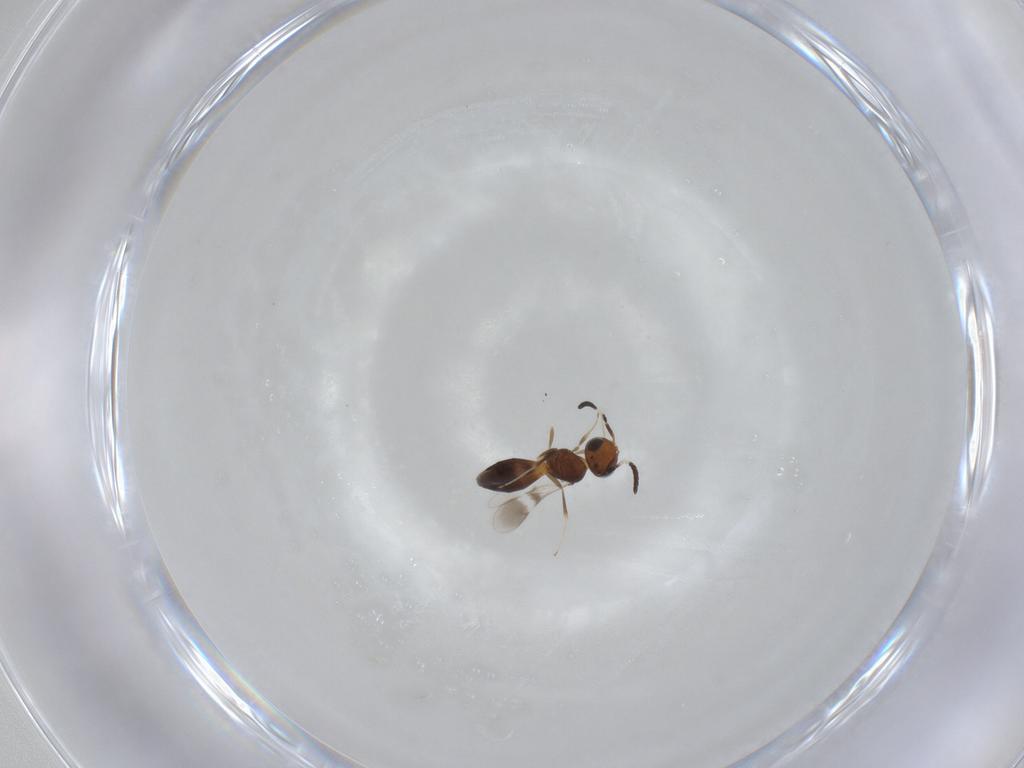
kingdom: Animalia
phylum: Arthropoda
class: Insecta
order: Hymenoptera
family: Scelionidae
